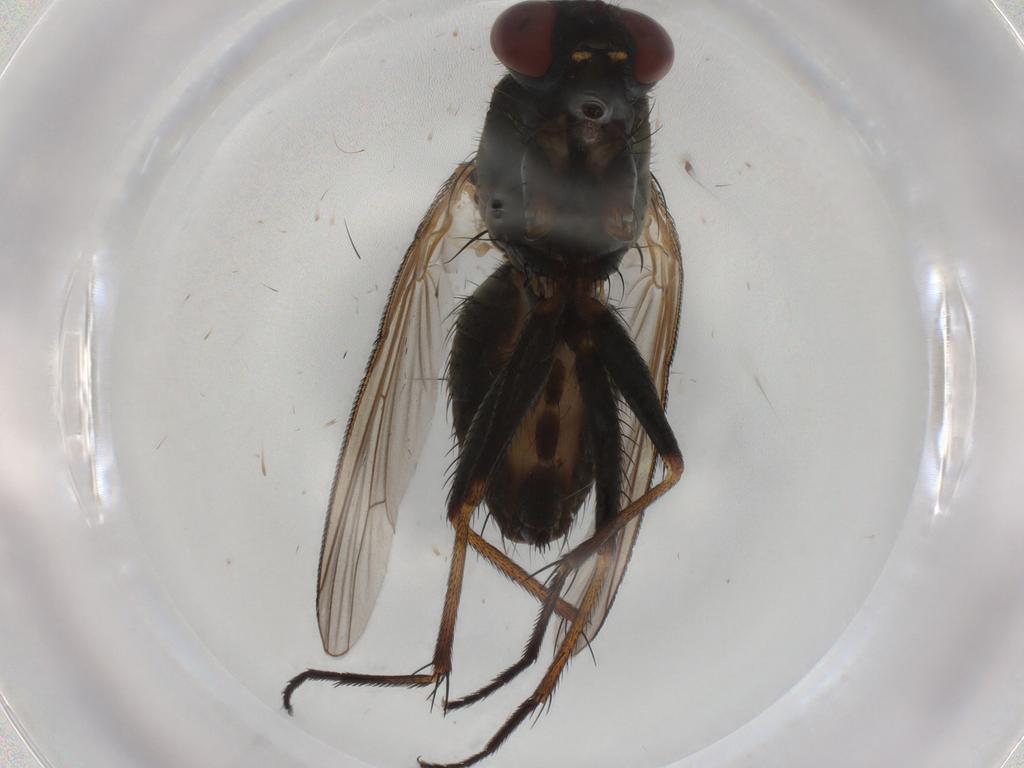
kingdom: Animalia
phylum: Arthropoda
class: Insecta
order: Diptera
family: Muscidae
